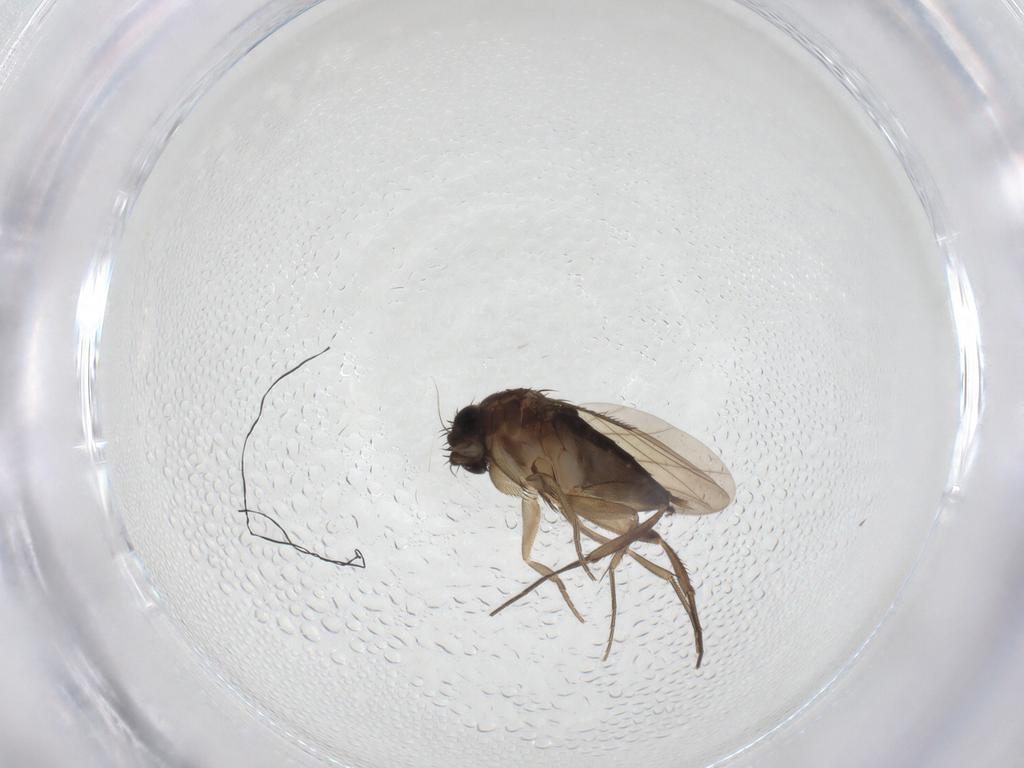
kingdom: Animalia
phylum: Arthropoda
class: Insecta
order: Diptera
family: Phoridae
